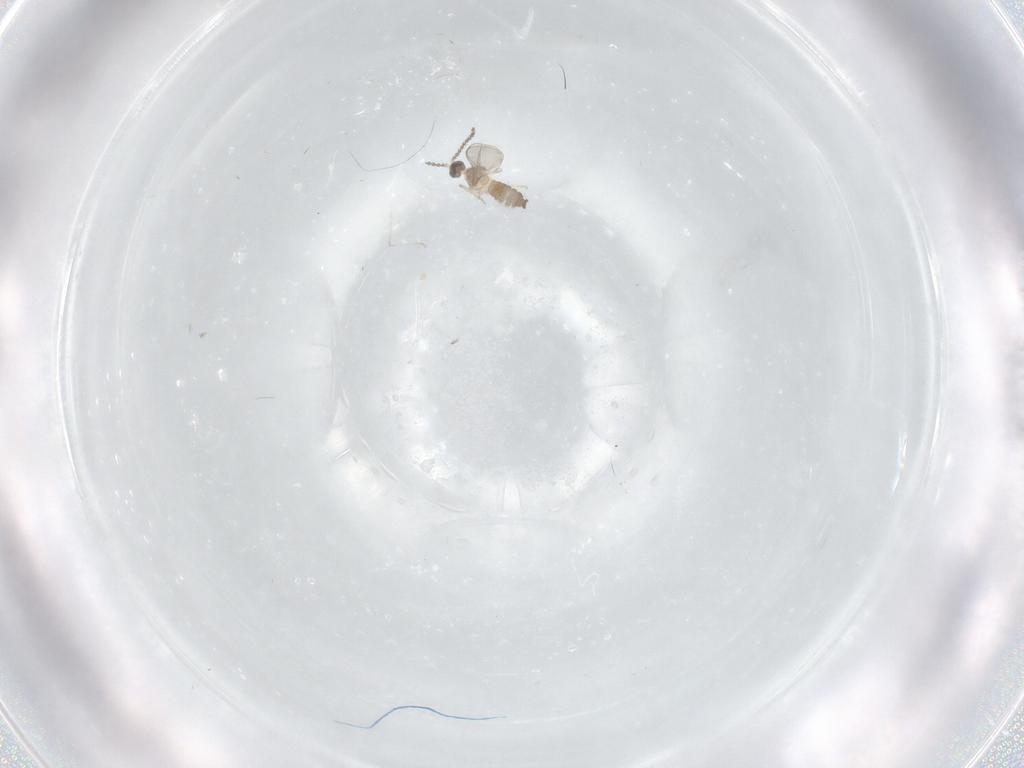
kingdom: Animalia
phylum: Arthropoda
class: Insecta
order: Diptera
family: Cecidomyiidae
